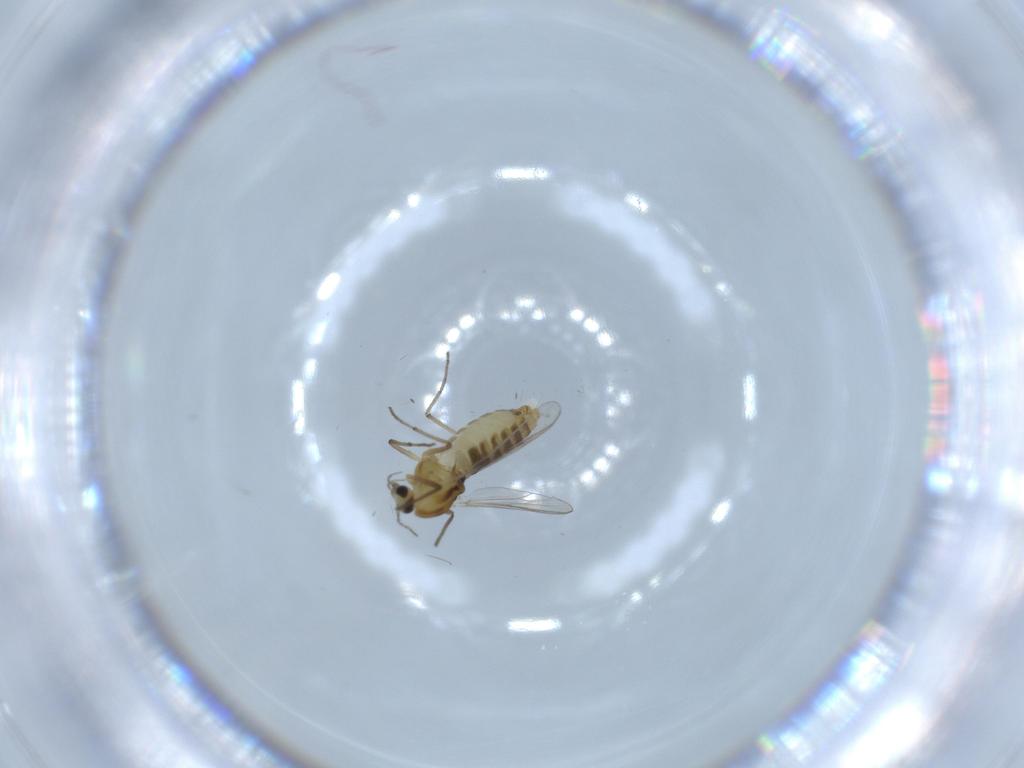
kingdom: Animalia
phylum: Arthropoda
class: Insecta
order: Diptera
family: Chironomidae
